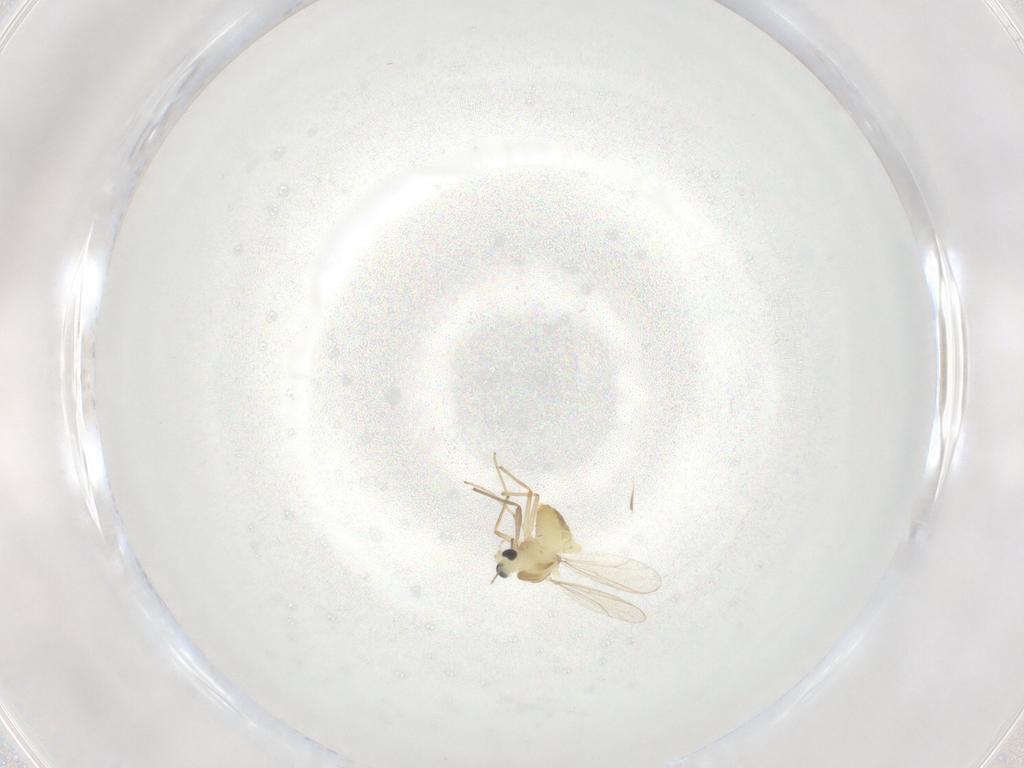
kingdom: Animalia
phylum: Arthropoda
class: Insecta
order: Diptera
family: Chironomidae
